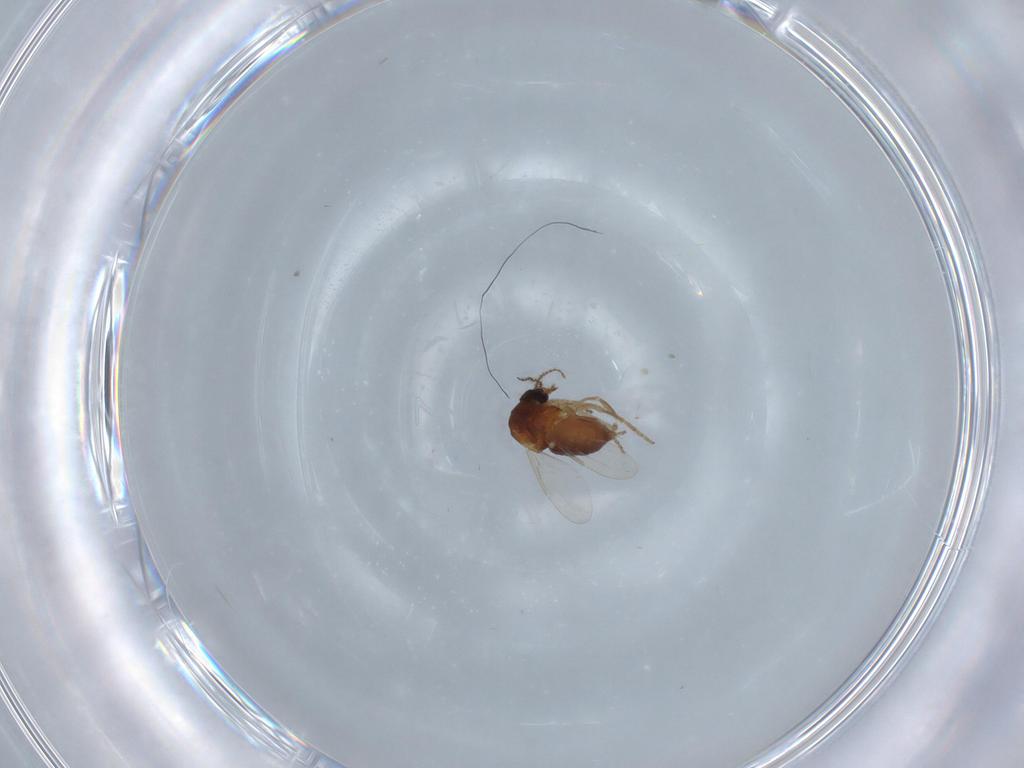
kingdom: Animalia
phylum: Arthropoda
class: Insecta
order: Diptera
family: Ceratopogonidae
